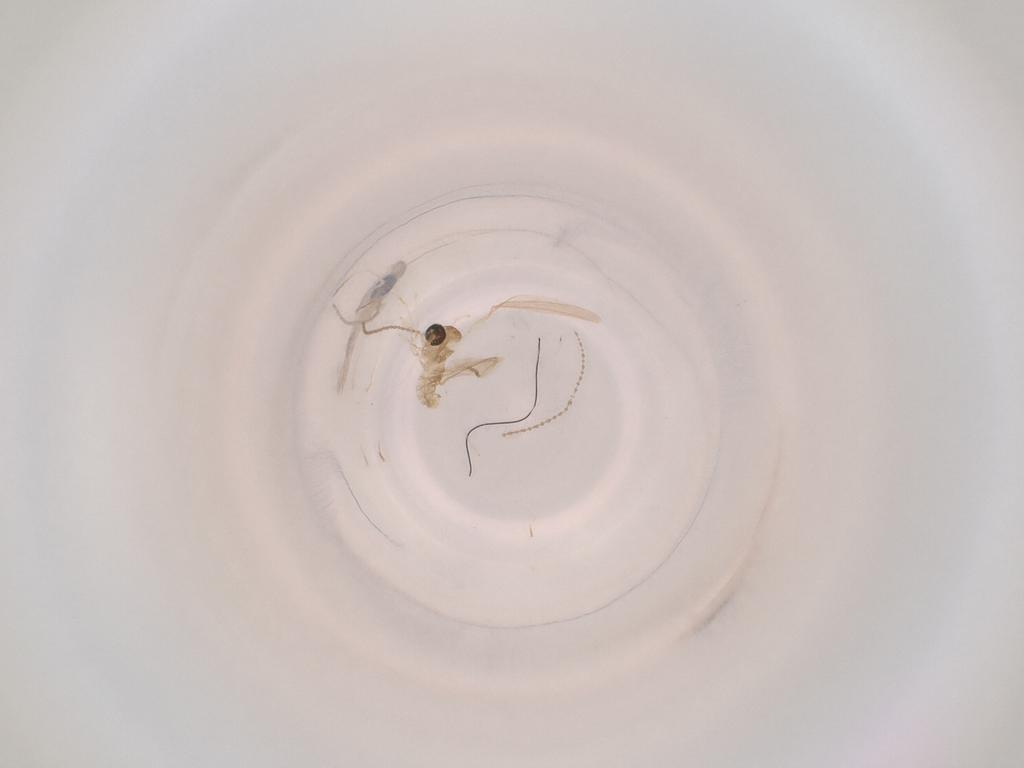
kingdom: Animalia
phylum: Arthropoda
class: Insecta
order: Diptera
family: Cecidomyiidae
